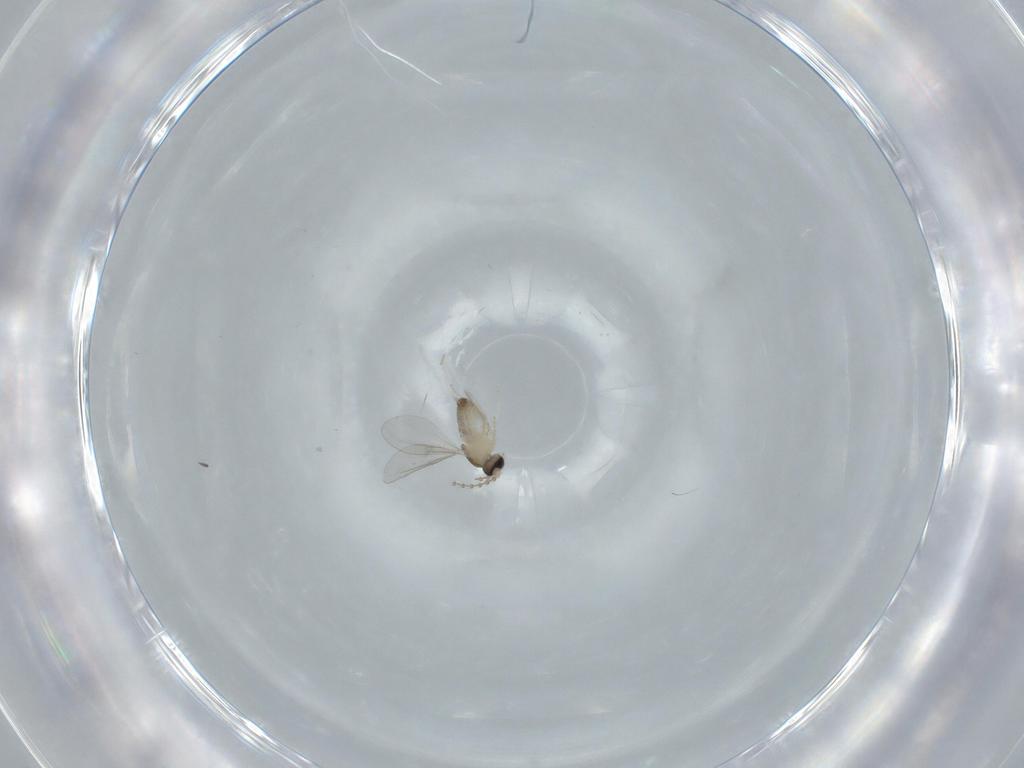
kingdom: Animalia
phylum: Arthropoda
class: Insecta
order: Diptera
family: Cecidomyiidae
